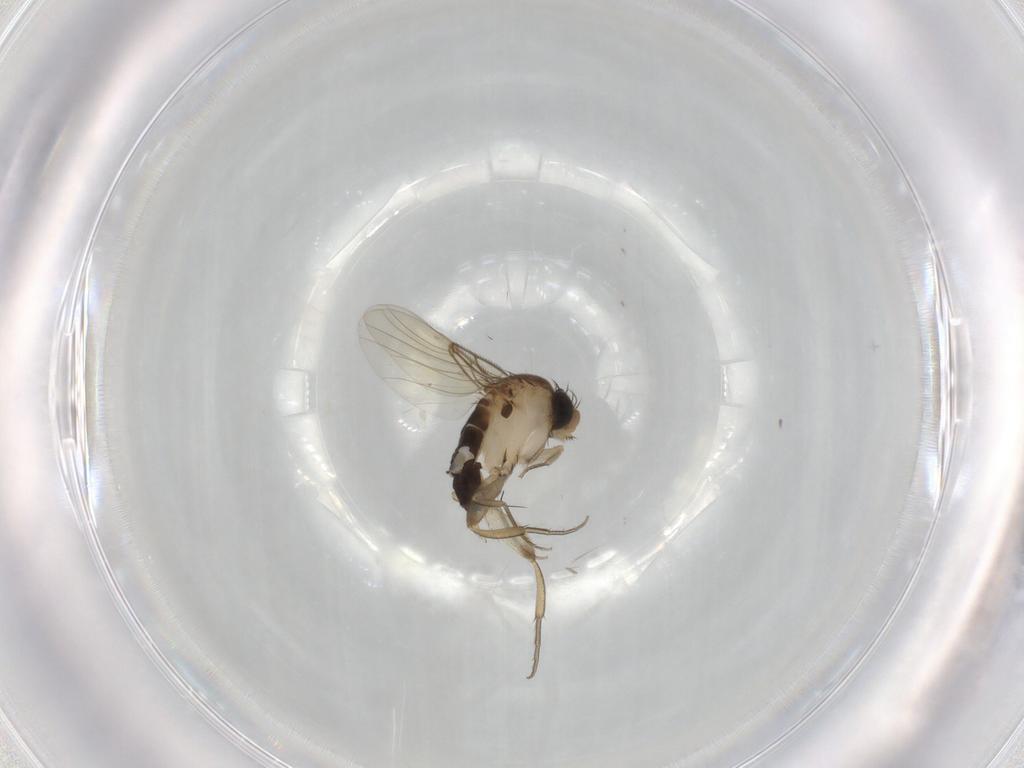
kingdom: Animalia
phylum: Arthropoda
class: Insecta
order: Diptera
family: Phoridae
